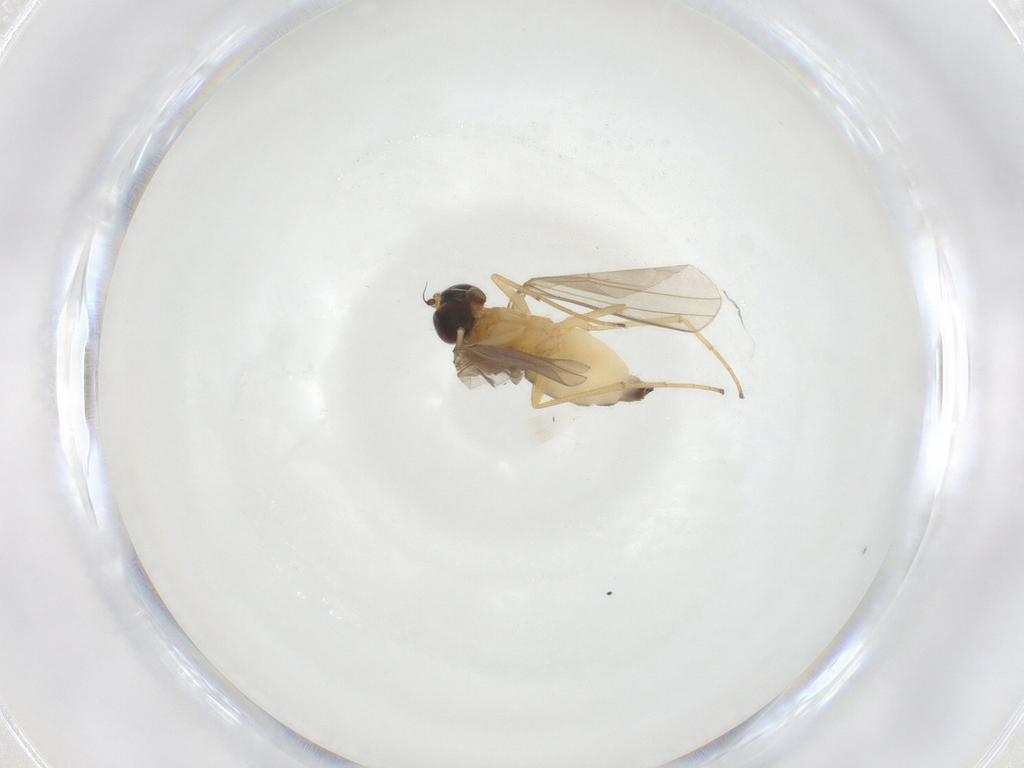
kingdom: Animalia
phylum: Arthropoda
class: Insecta
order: Diptera
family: Dolichopodidae
